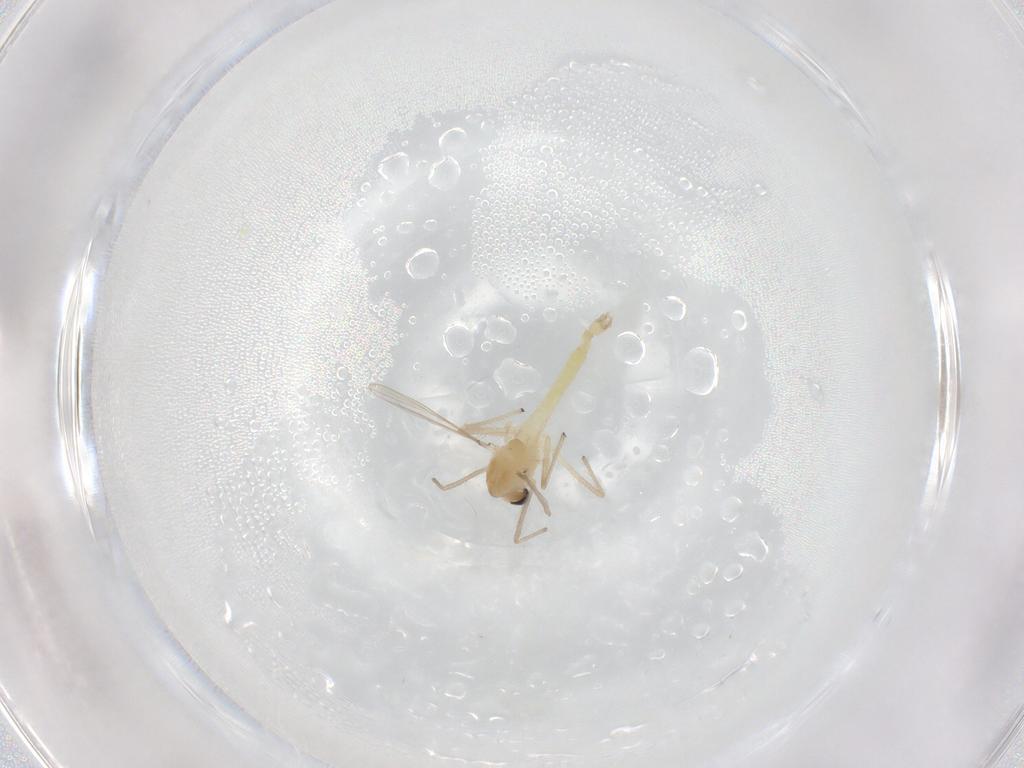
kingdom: Animalia
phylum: Arthropoda
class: Insecta
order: Diptera
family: Chironomidae
